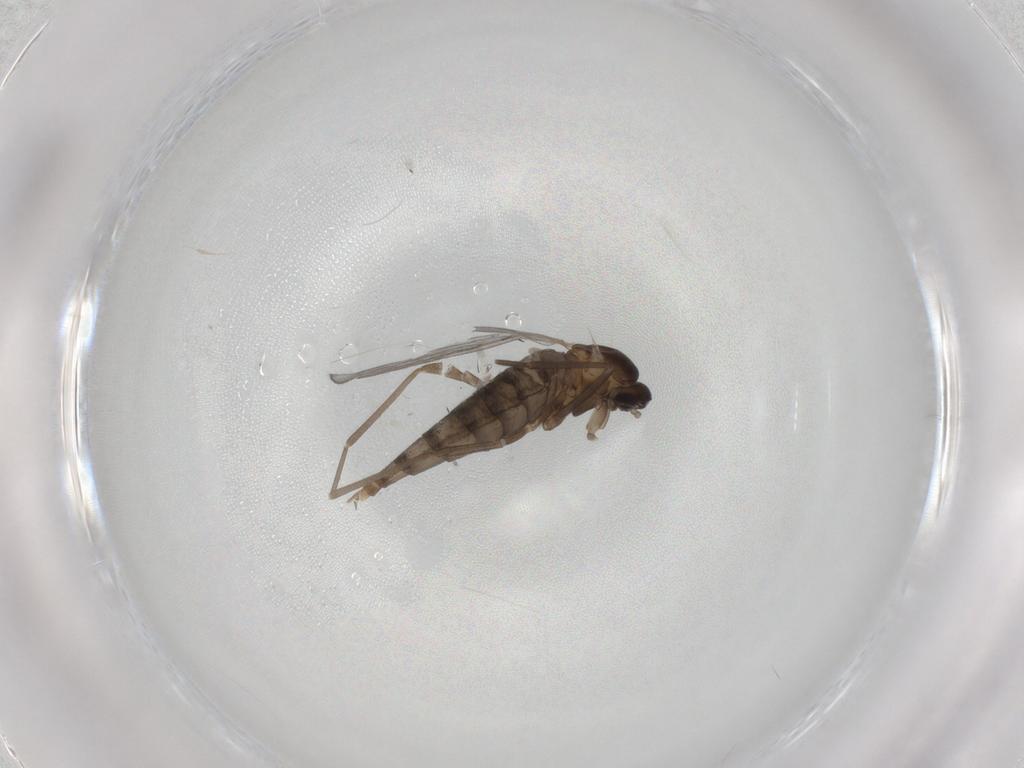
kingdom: Animalia
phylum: Arthropoda
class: Insecta
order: Diptera
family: Cecidomyiidae
